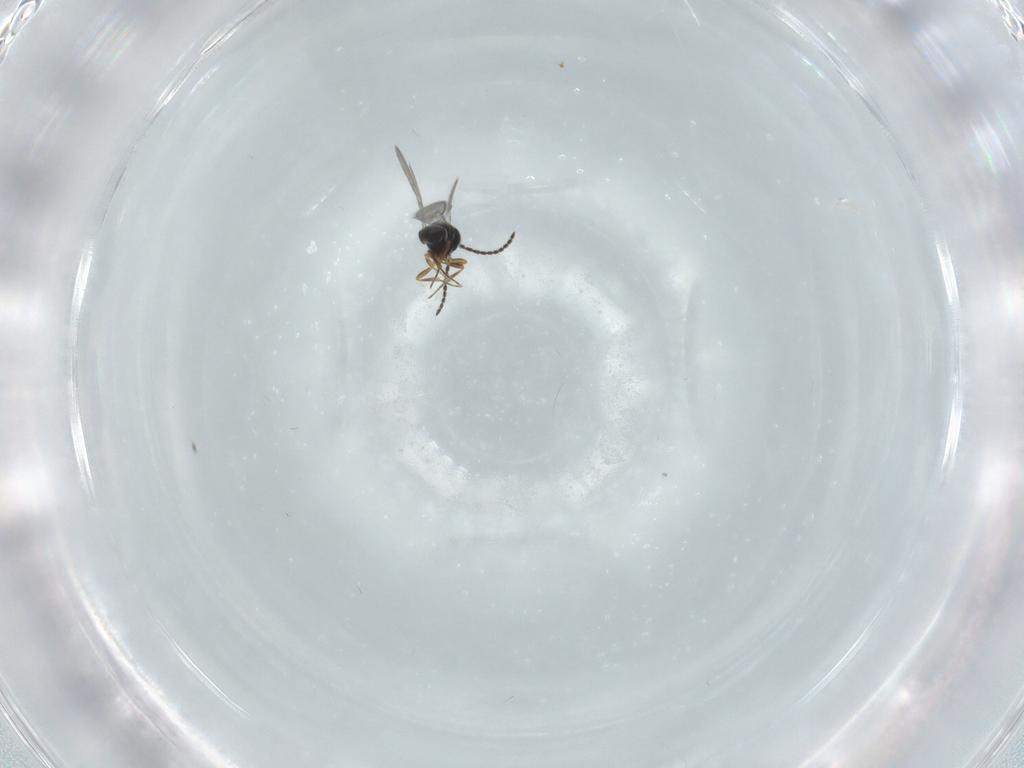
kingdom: Animalia
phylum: Arthropoda
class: Insecta
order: Hymenoptera
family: Scelionidae
